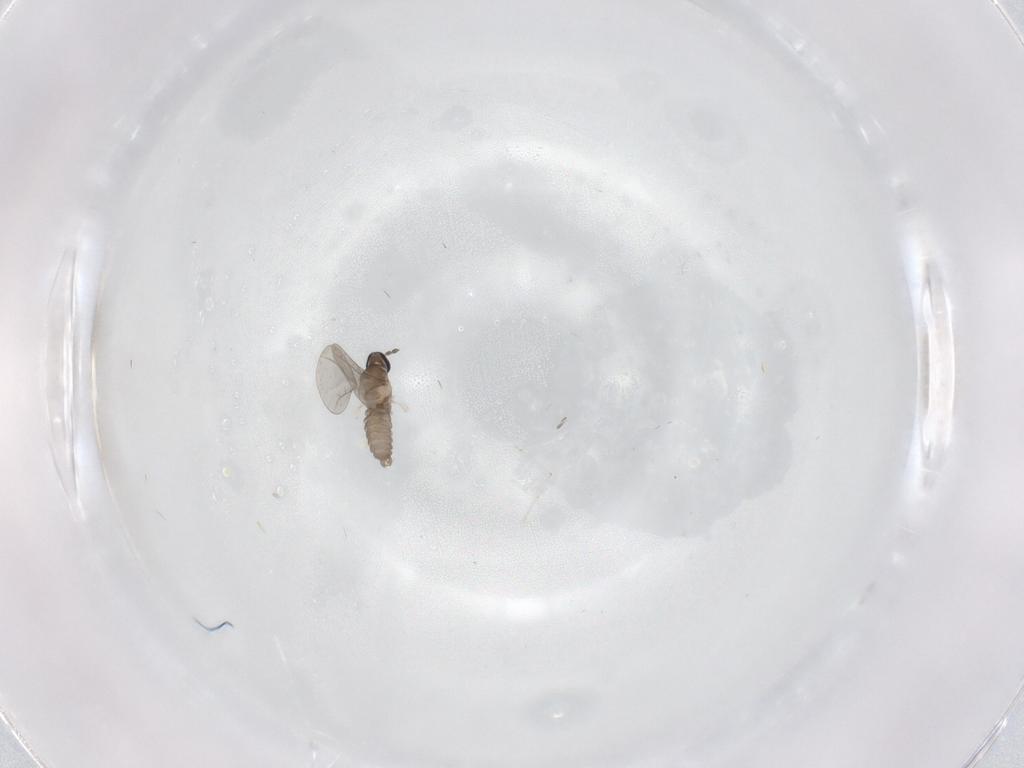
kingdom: Animalia
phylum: Arthropoda
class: Insecta
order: Diptera
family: Cecidomyiidae
